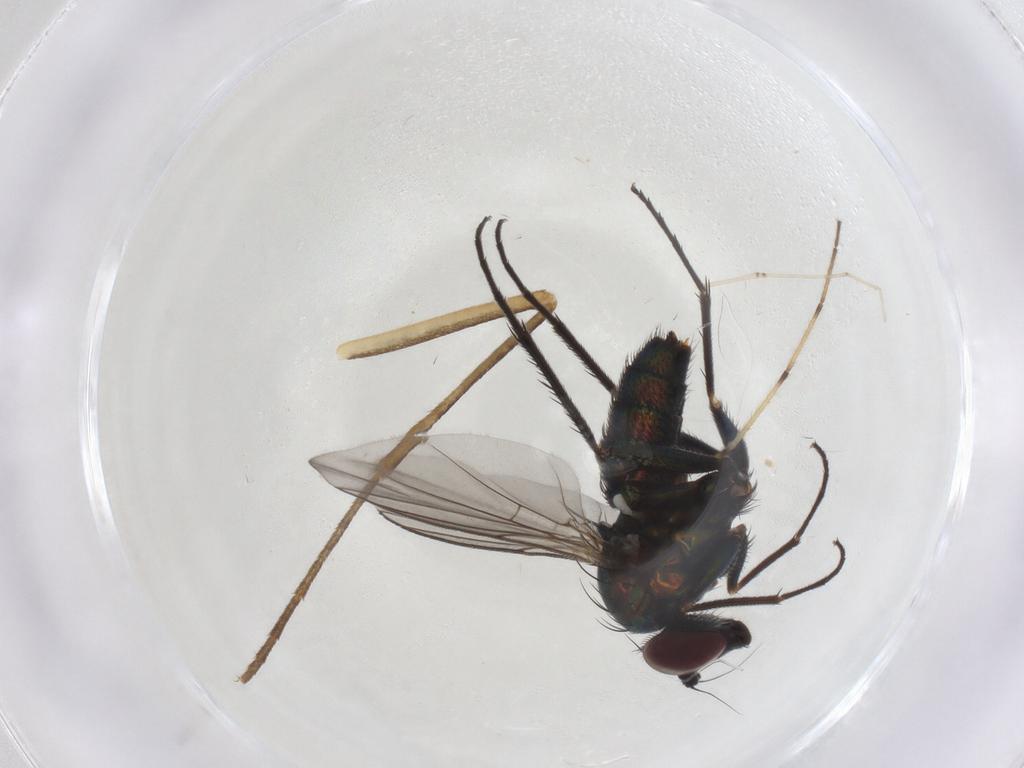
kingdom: Animalia
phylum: Arthropoda
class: Insecta
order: Diptera
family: Dolichopodidae
